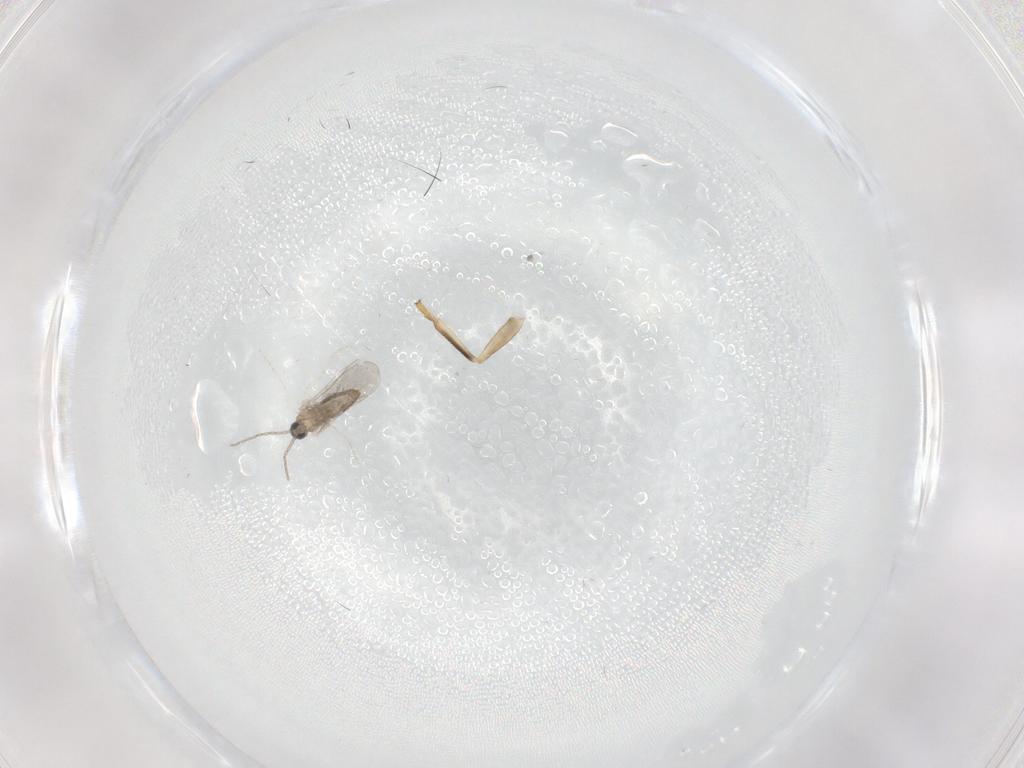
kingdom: Animalia
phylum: Arthropoda
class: Insecta
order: Diptera
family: Cecidomyiidae
